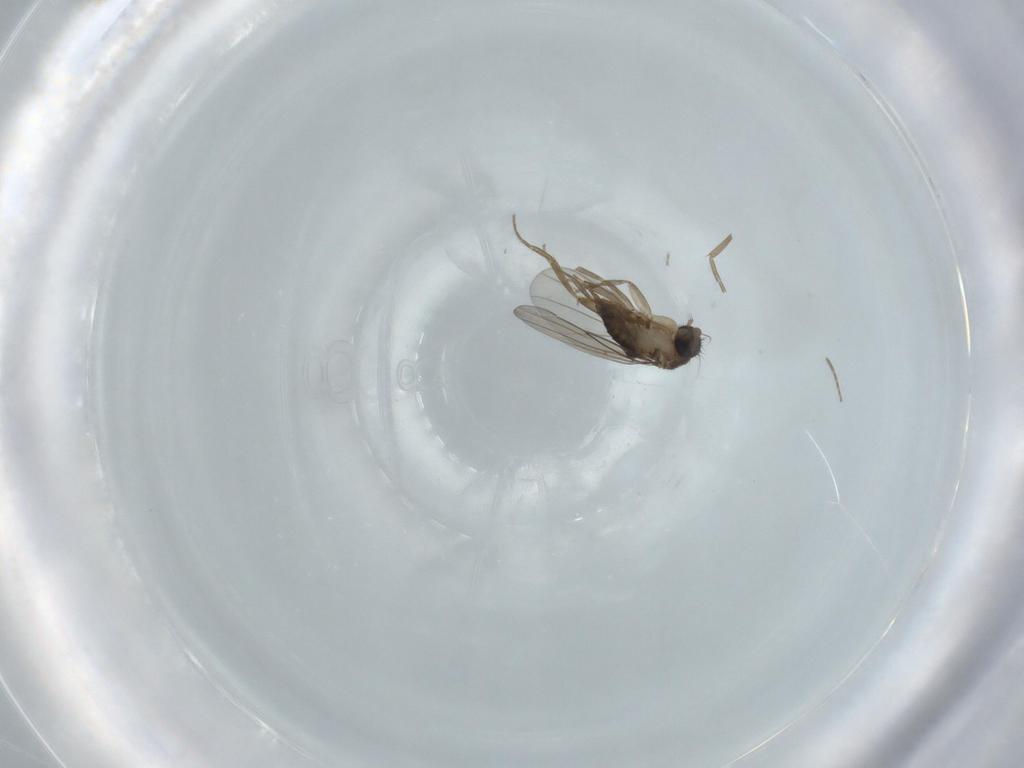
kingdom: Animalia
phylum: Arthropoda
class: Insecta
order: Diptera
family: Phoridae
